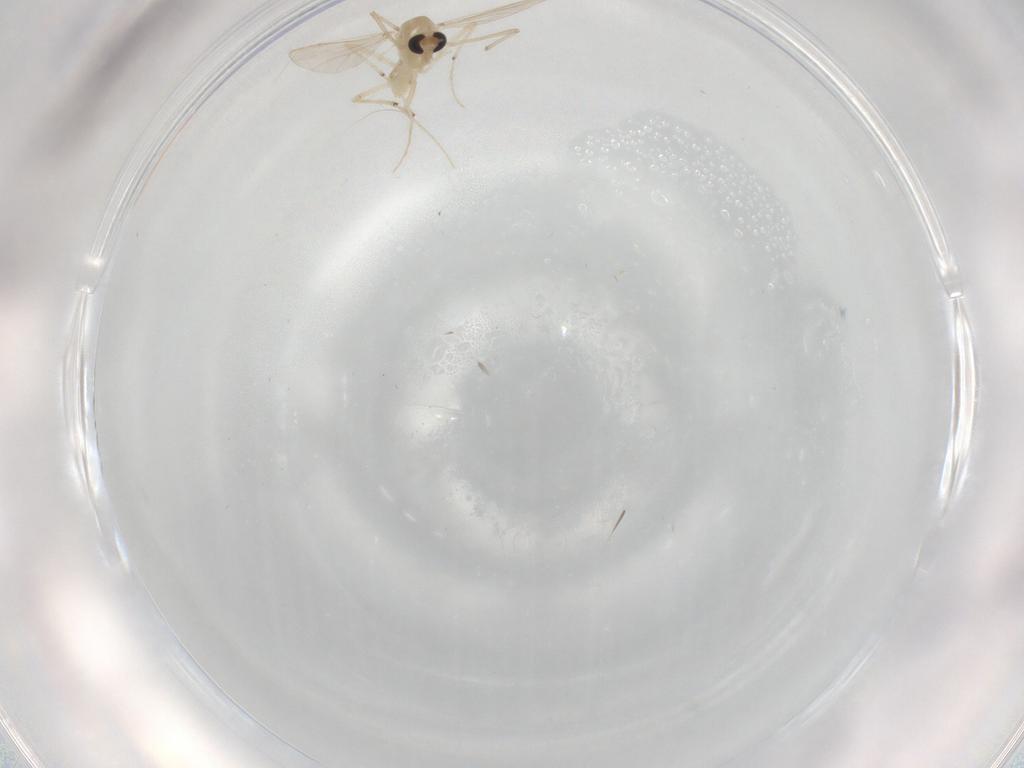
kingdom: Animalia
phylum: Arthropoda
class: Insecta
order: Diptera
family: Chironomidae
